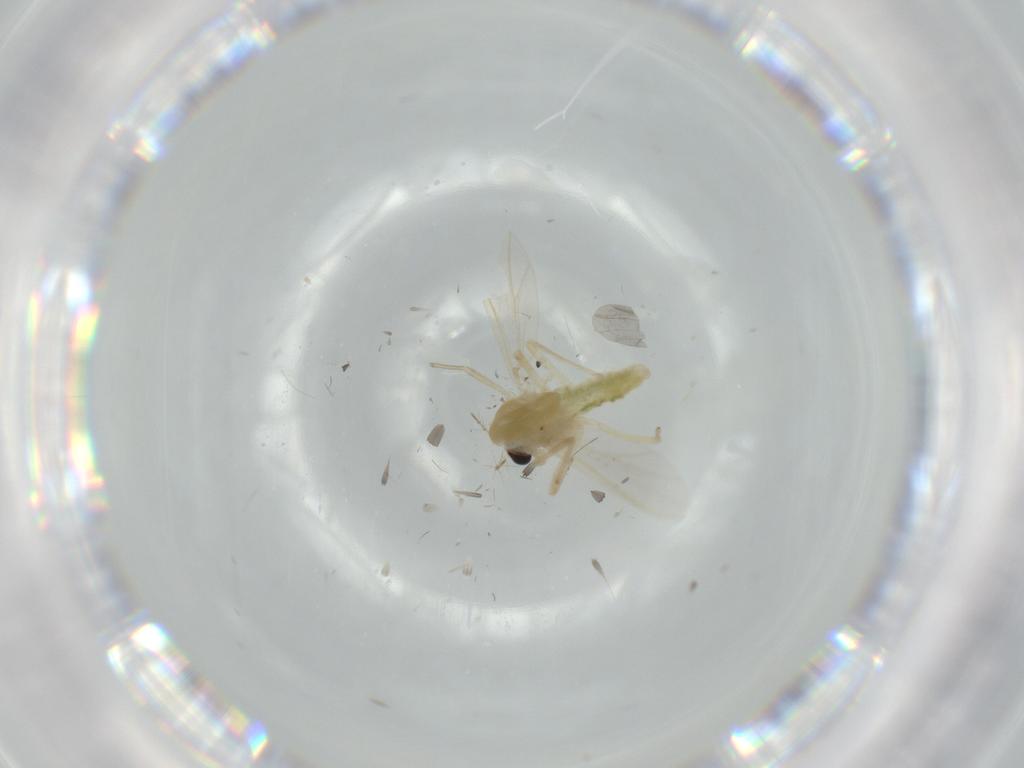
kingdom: Animalia
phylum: Arthropoda
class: Insecta
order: Diptera
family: Chironomidae
